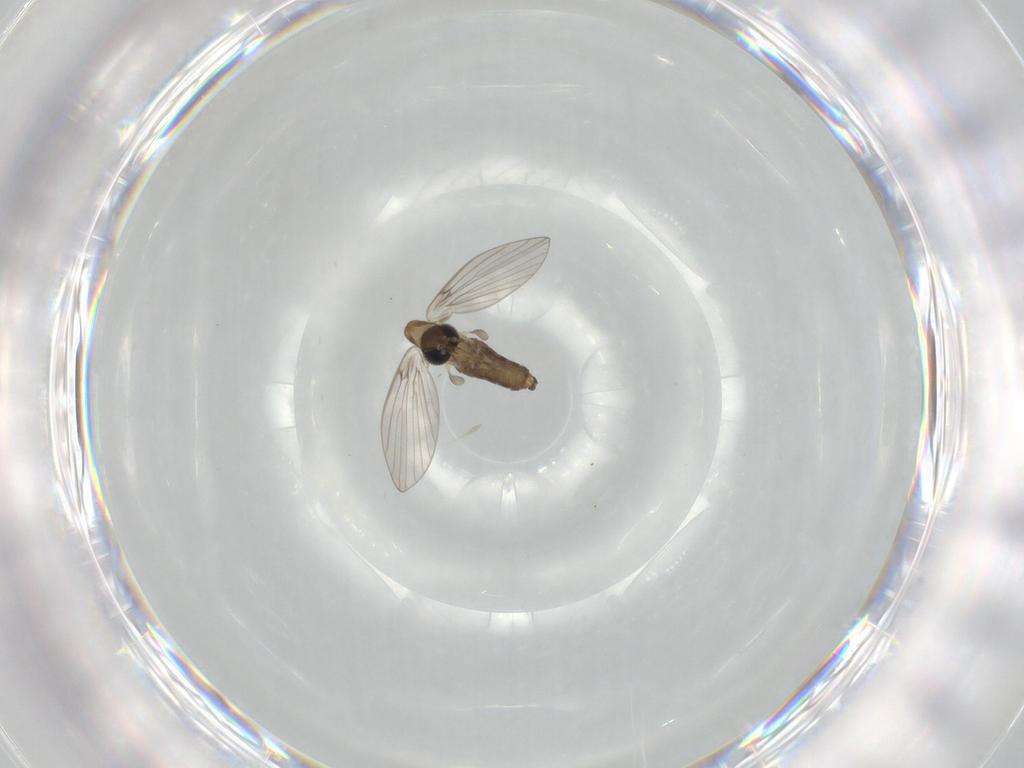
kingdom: Animalia
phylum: Arthropoda
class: Insecta
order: Diptera
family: Psychodidae
